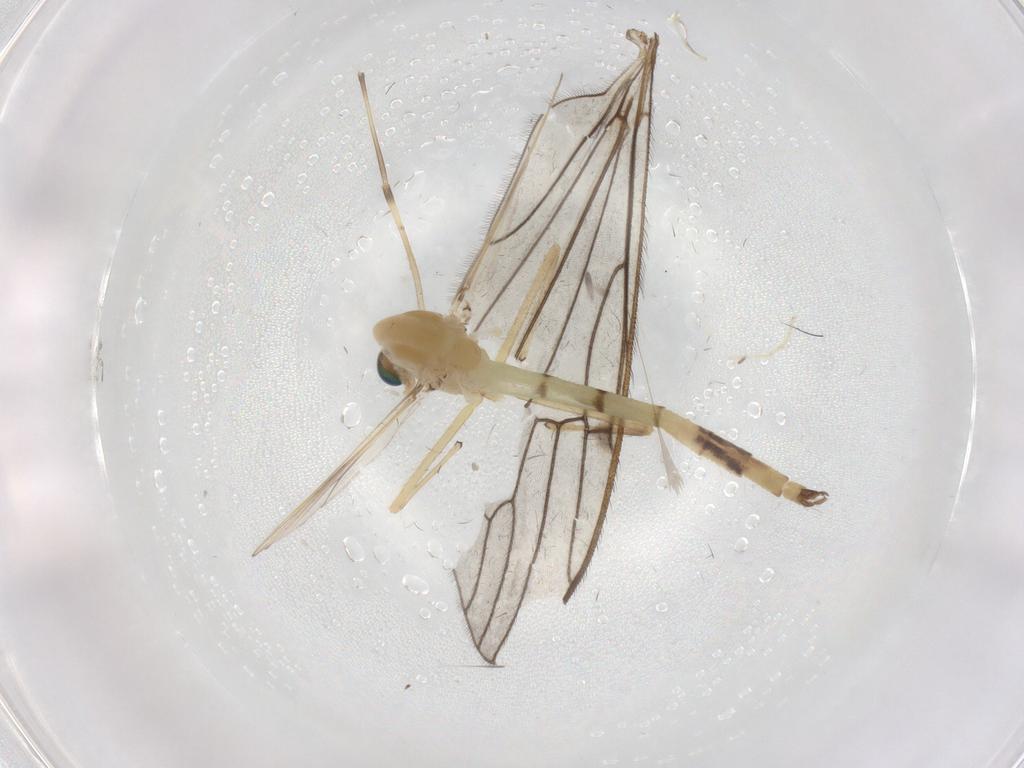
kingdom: Animalia
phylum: Arthropoda
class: Insecta
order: Diptera
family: Chironomidae
